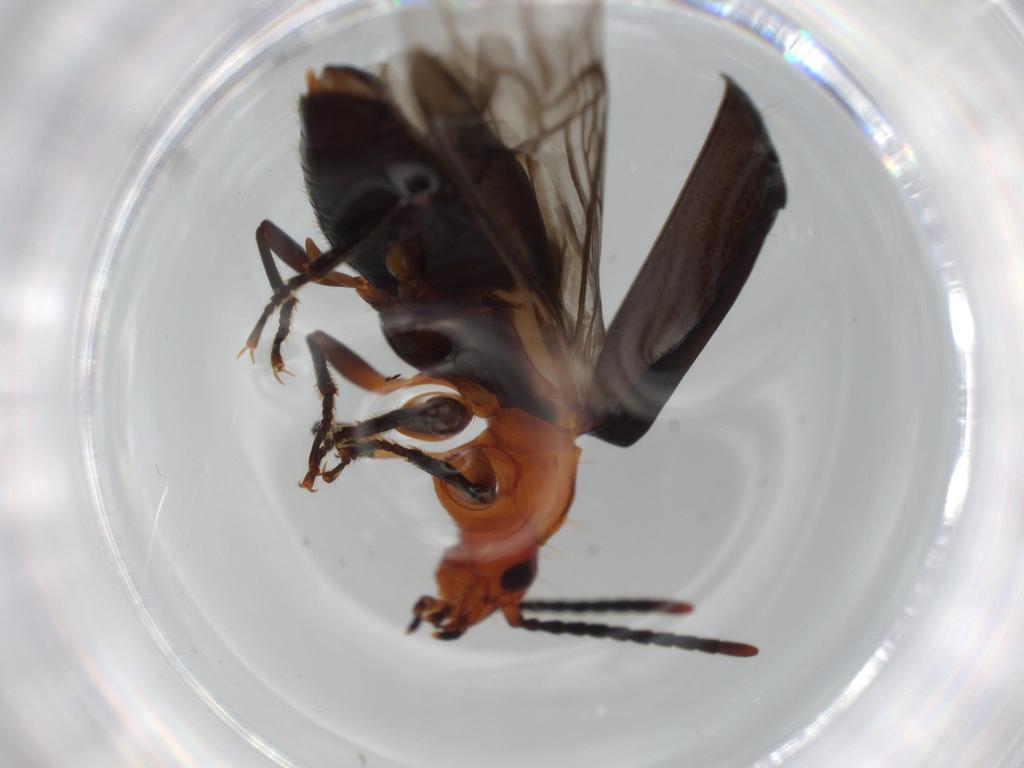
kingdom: Animalia
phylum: Arthropoda
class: Insecta
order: Coleoptera
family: Carabidae
